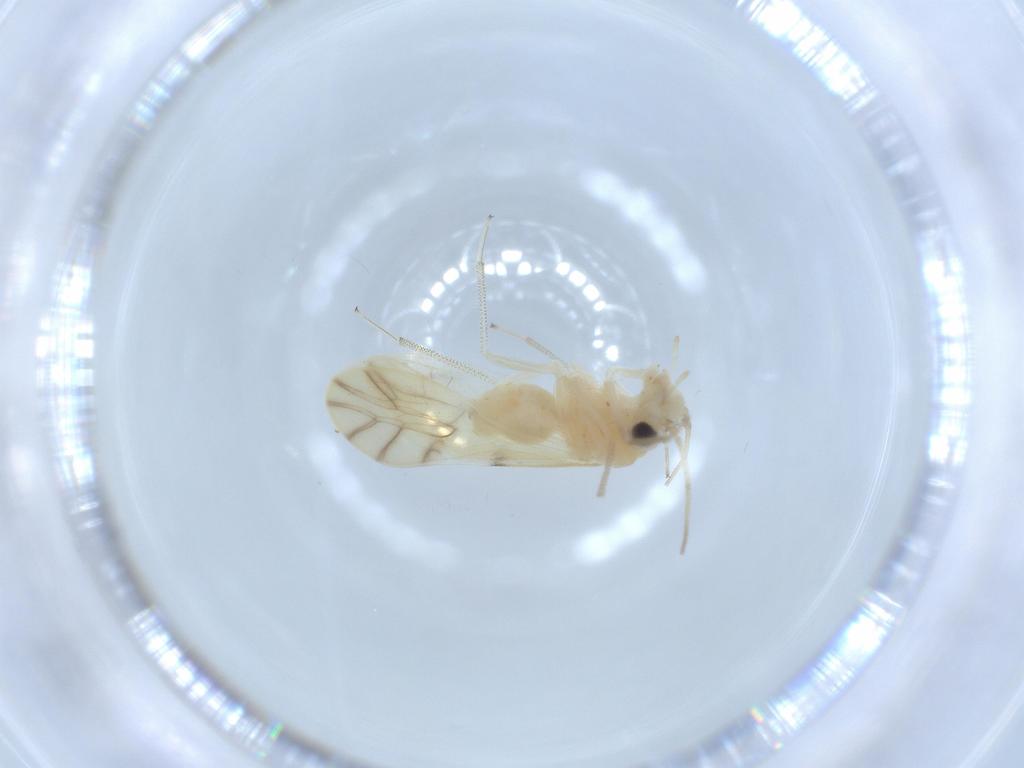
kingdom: Animalia
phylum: Arthropoda
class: Insecta
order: Psocodea
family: Caeciliusidae
